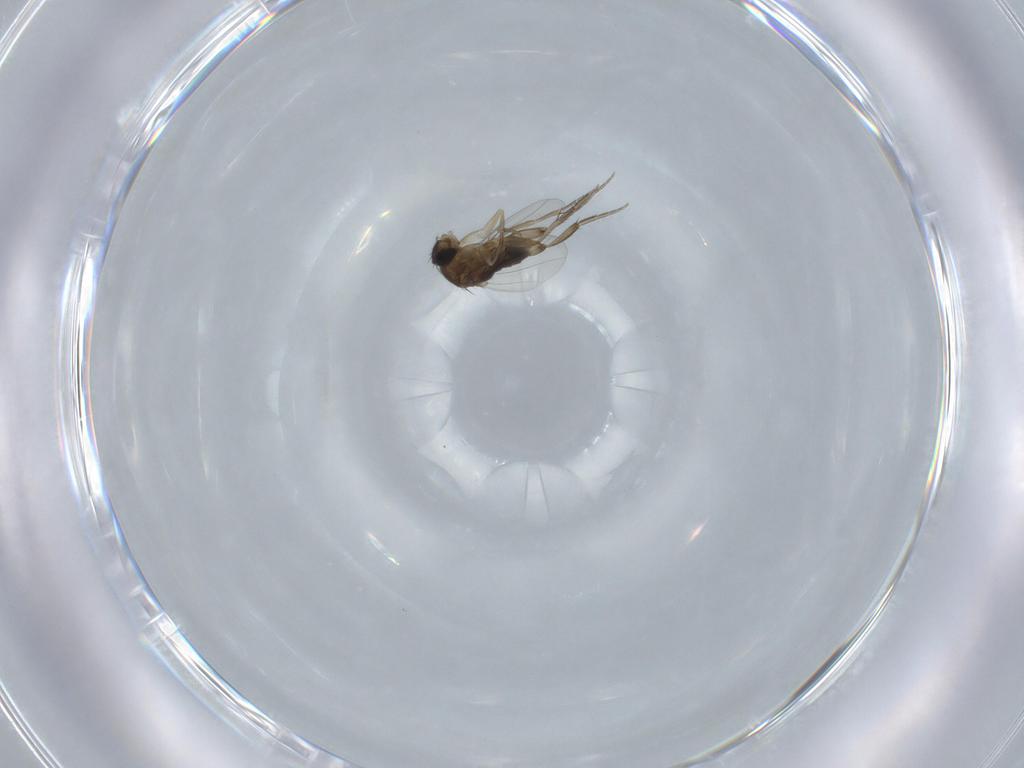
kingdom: Animalia
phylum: Arthropoda
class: Insecta
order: Diptera
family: Phoridae
